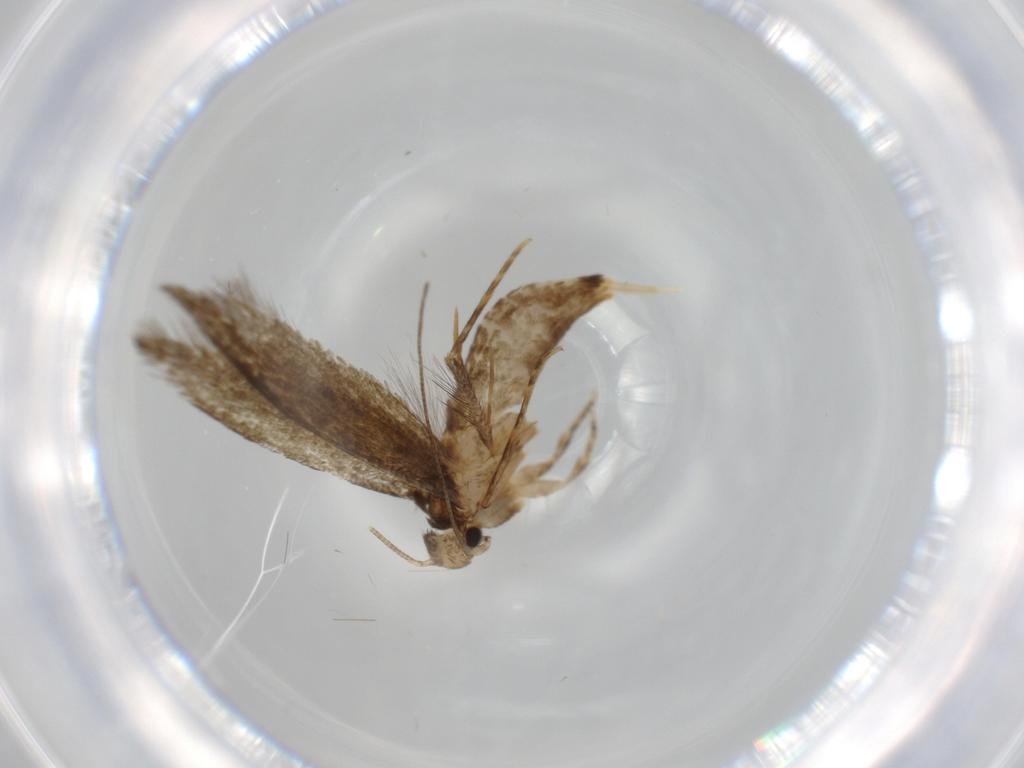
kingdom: Animalia
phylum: Arthropoda
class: Insecta
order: Lepidoptera
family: Tineidae
